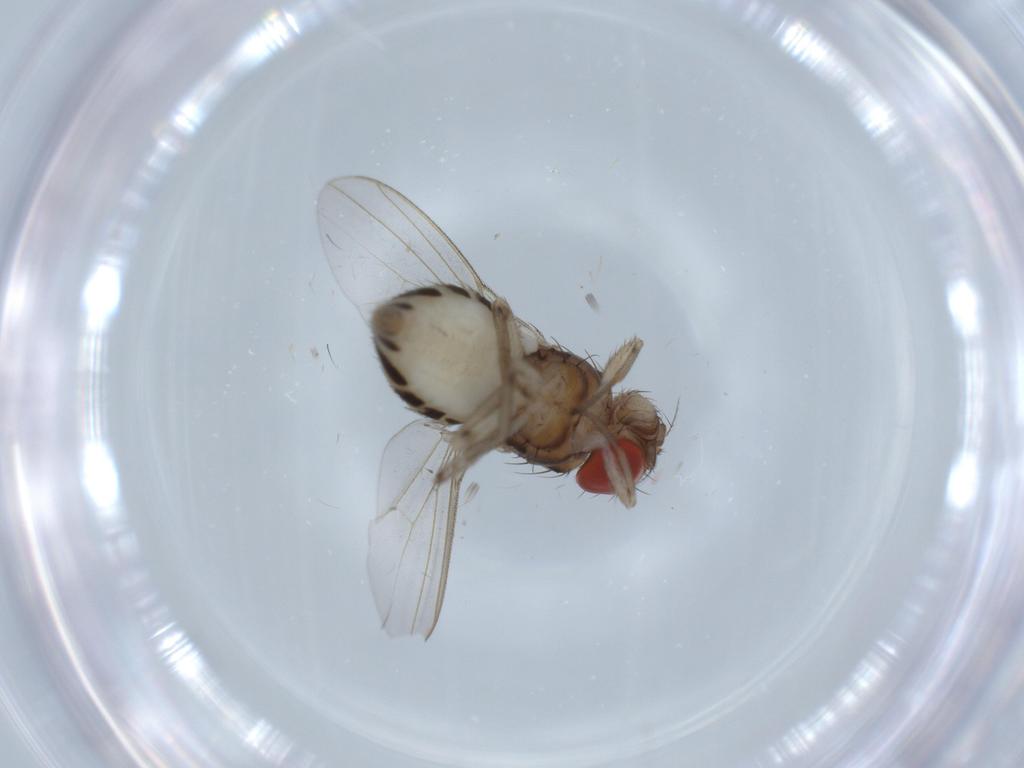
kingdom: Animalia
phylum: Arthropoda
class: Insecta
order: Diptera
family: Drosophilidae
